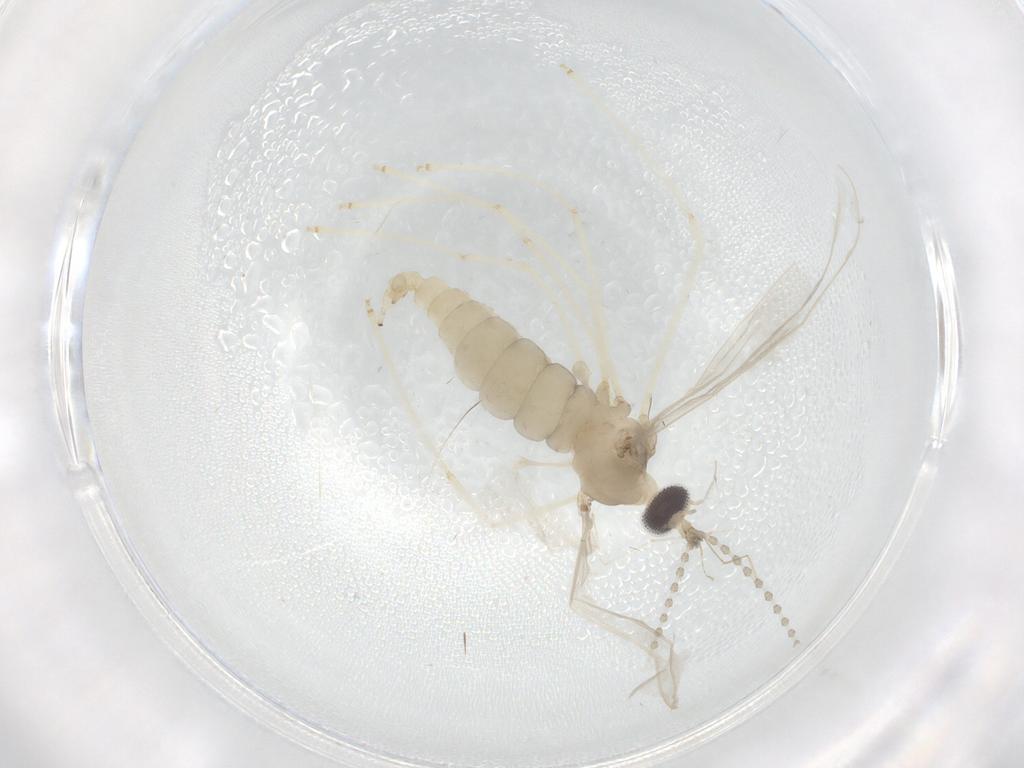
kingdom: Animalia
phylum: Arthropoda
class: Insecta
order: Diptera
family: Cecidomyiidae
